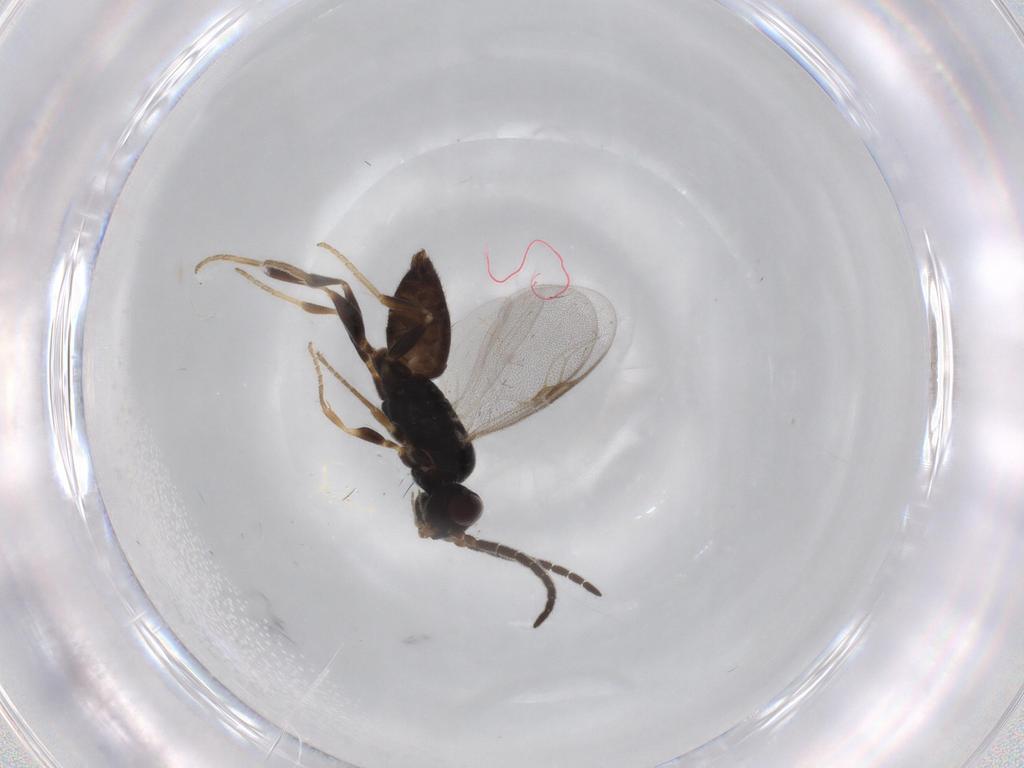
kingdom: Animalia
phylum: Arthropoda
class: Insecta
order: Hymenoptera
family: Dryinidae
